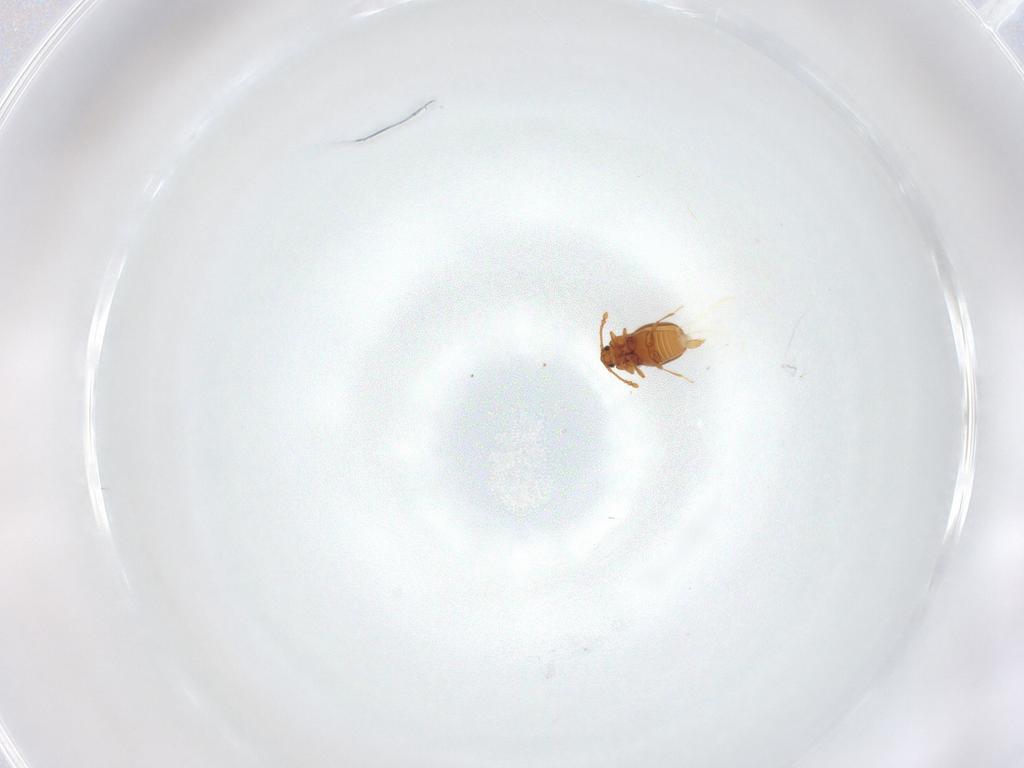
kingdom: Animalia
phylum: Arthropoda
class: Insecta
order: Coleoptera
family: Staphylinidae
